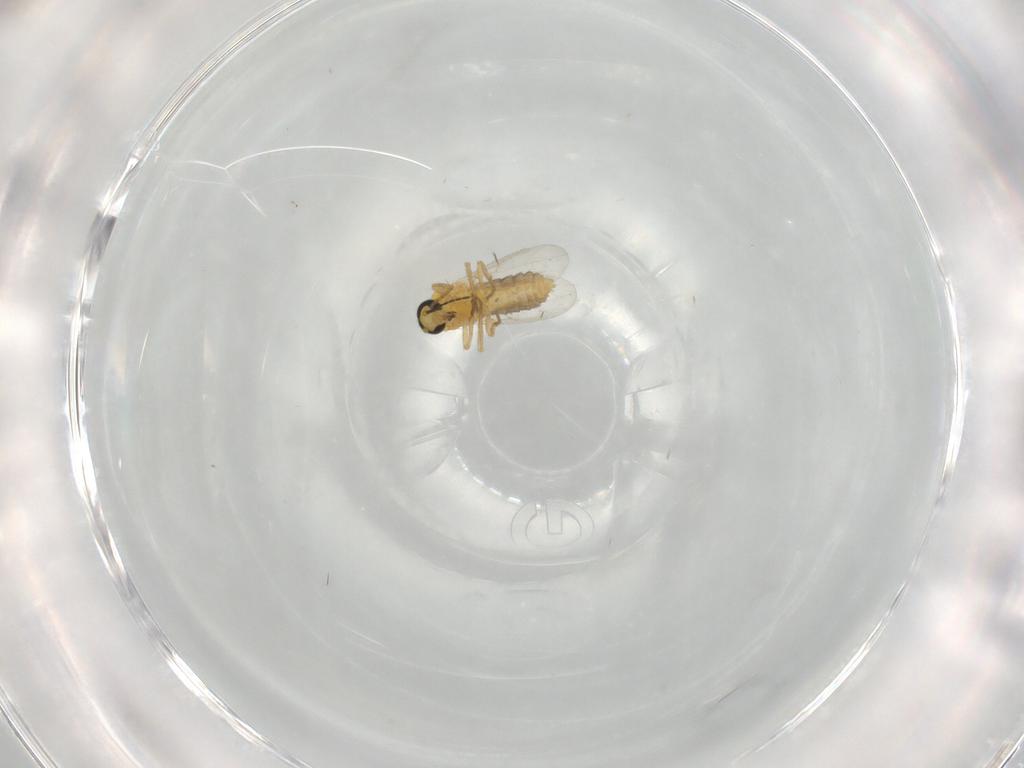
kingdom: Animalia
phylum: Arthropoda
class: Insecta
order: Diptera
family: Ceratopogonidae
